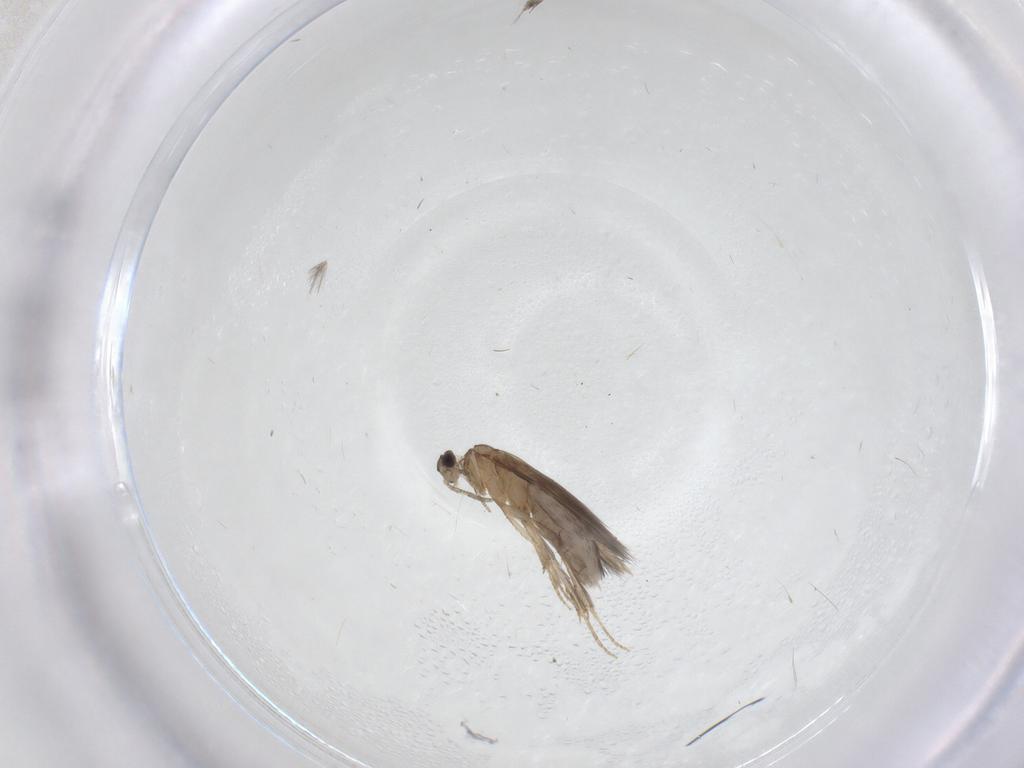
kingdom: Animalia
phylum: Arthropoda
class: Insecta
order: Trichoptera
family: Hydroptilidae
